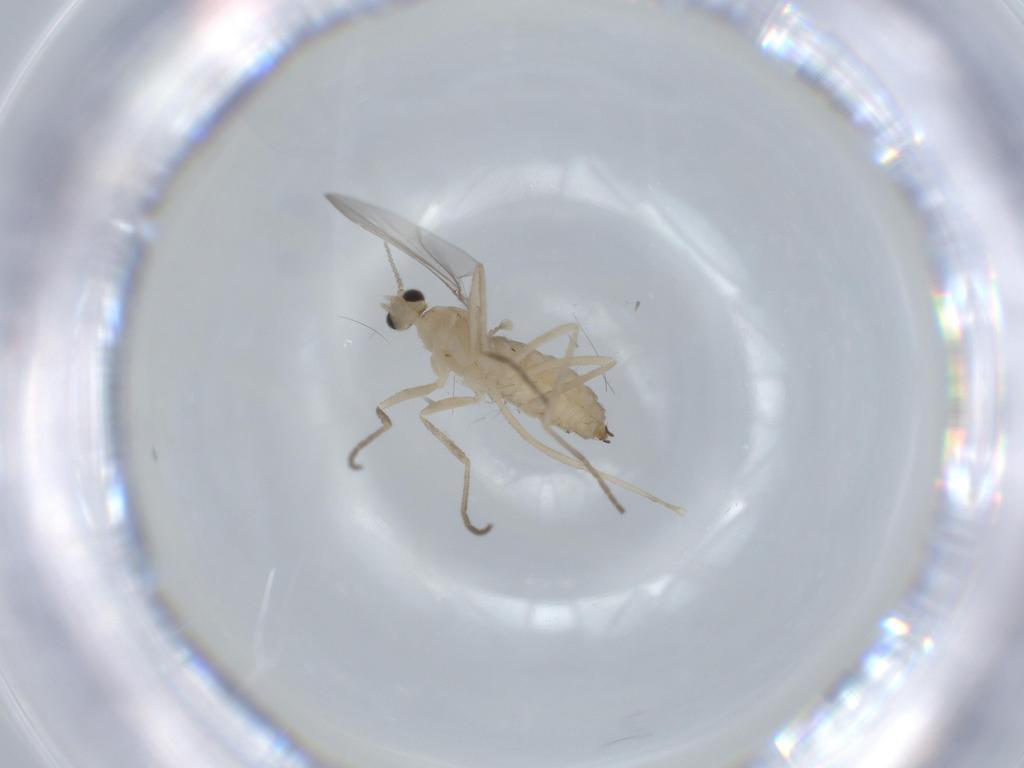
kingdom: Animalia
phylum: Arthropoda
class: Insecta
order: Diptera
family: Cecidomyiidae
